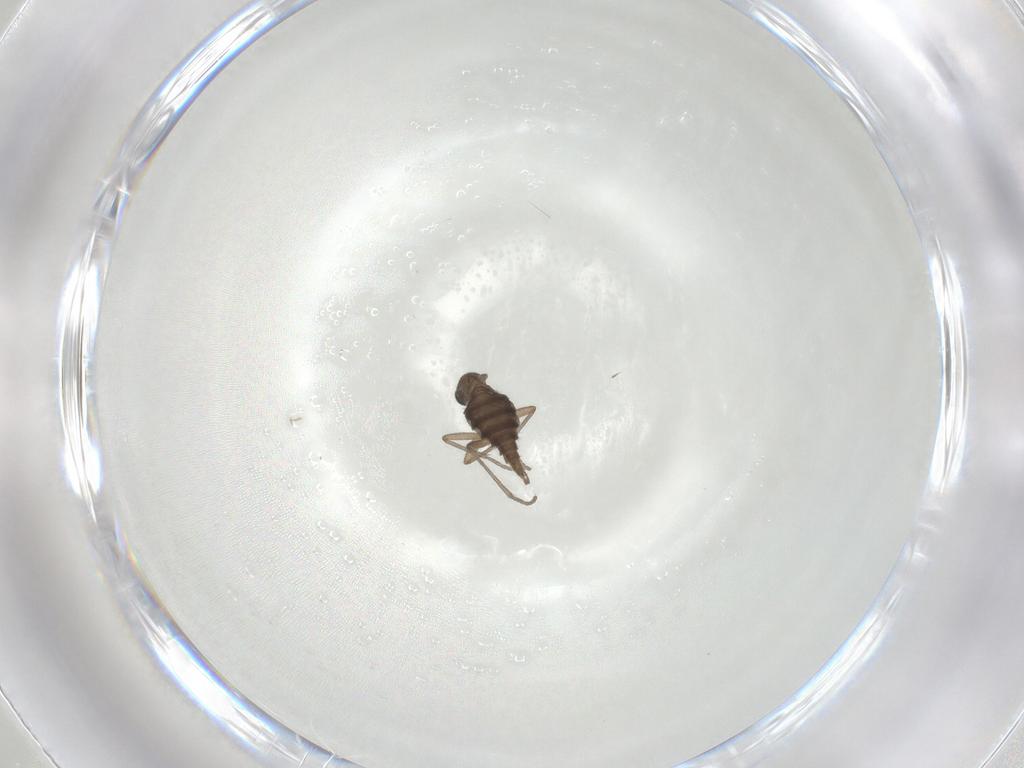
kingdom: Animalia
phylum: Arthropoda
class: Insecta
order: Diptera
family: Sciaridae
